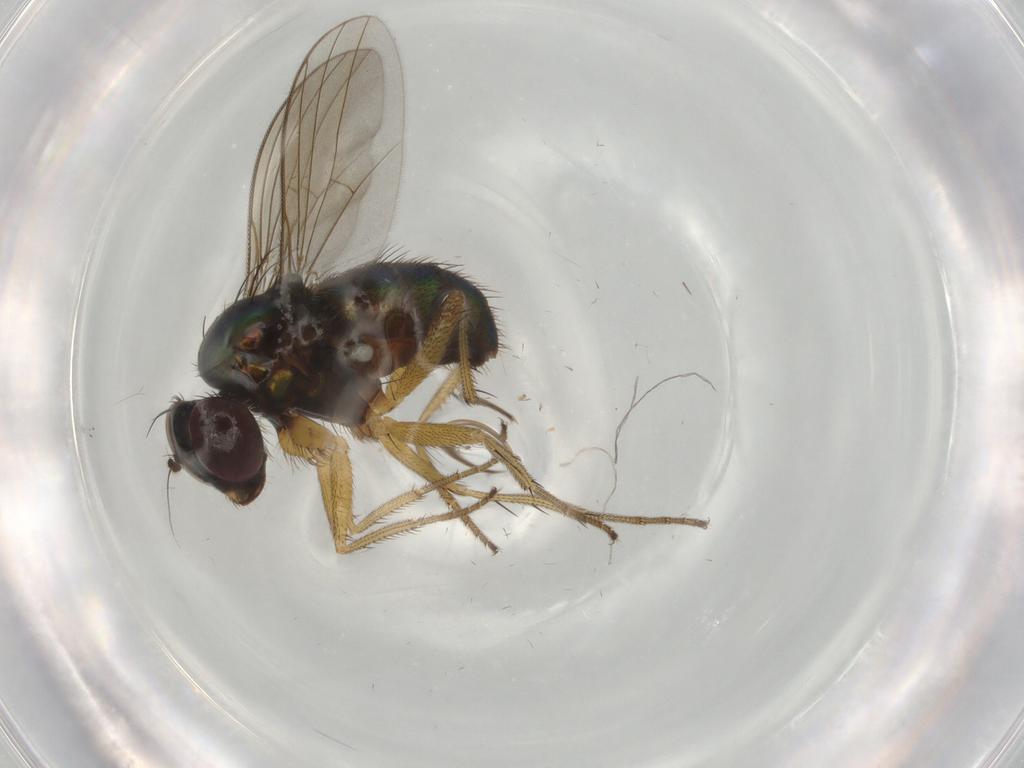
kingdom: Animalia
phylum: Arthropoda
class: Insecta
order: Diptera
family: Dolichopodidae
